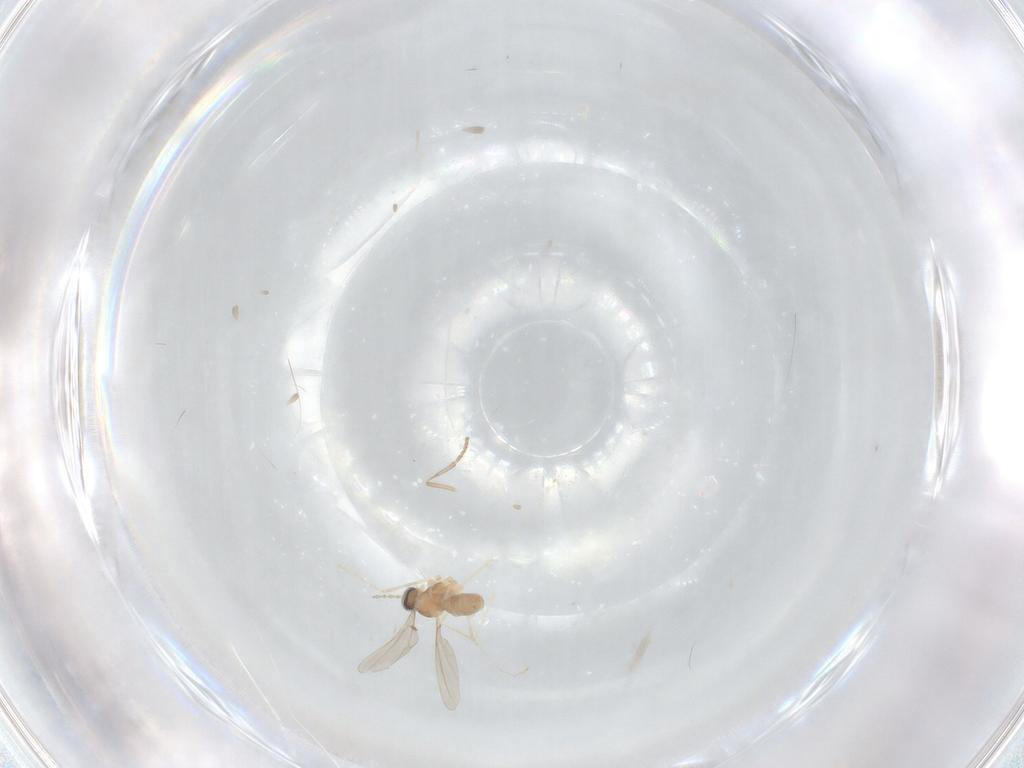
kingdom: Animalia
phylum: Arthropoda
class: Insecta
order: Diptera
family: Cecidomyiidae
